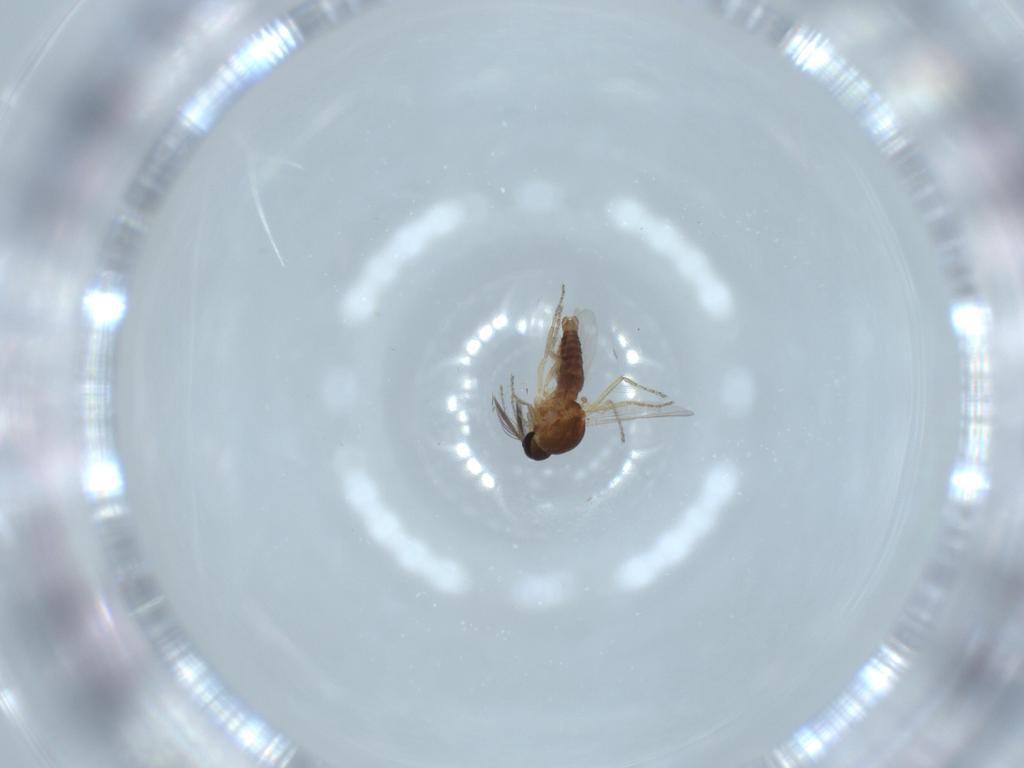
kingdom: Animalia
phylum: Arthropoda
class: Insecta
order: Diptera
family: Ceratopogonidae
